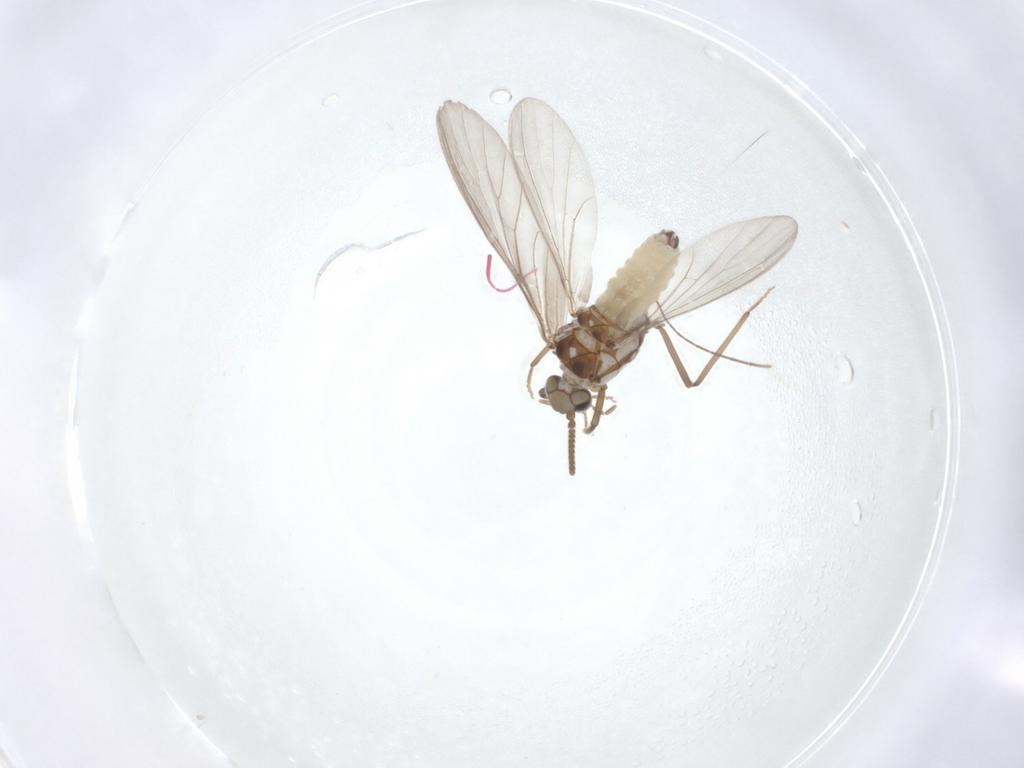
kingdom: Animalia
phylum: Arthropoda
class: Insecta
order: Neuroptera
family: Coniopterygidae
